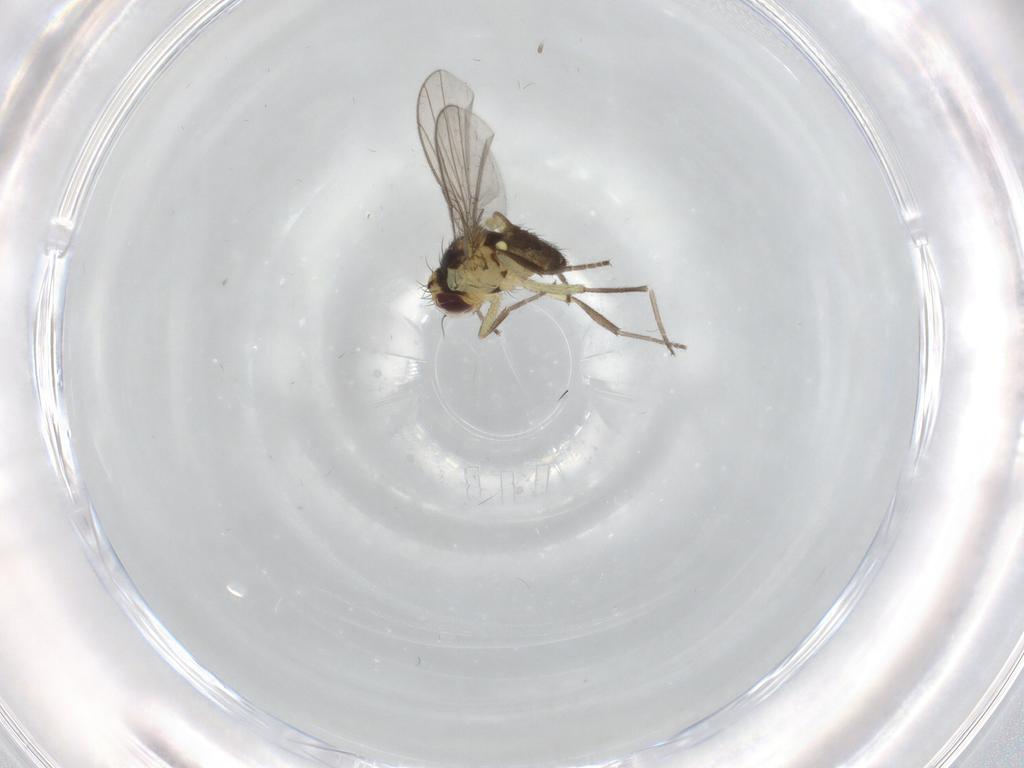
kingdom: Animalia
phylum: Arthropoda
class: Insecta
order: Diptera
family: Agromyzidae
